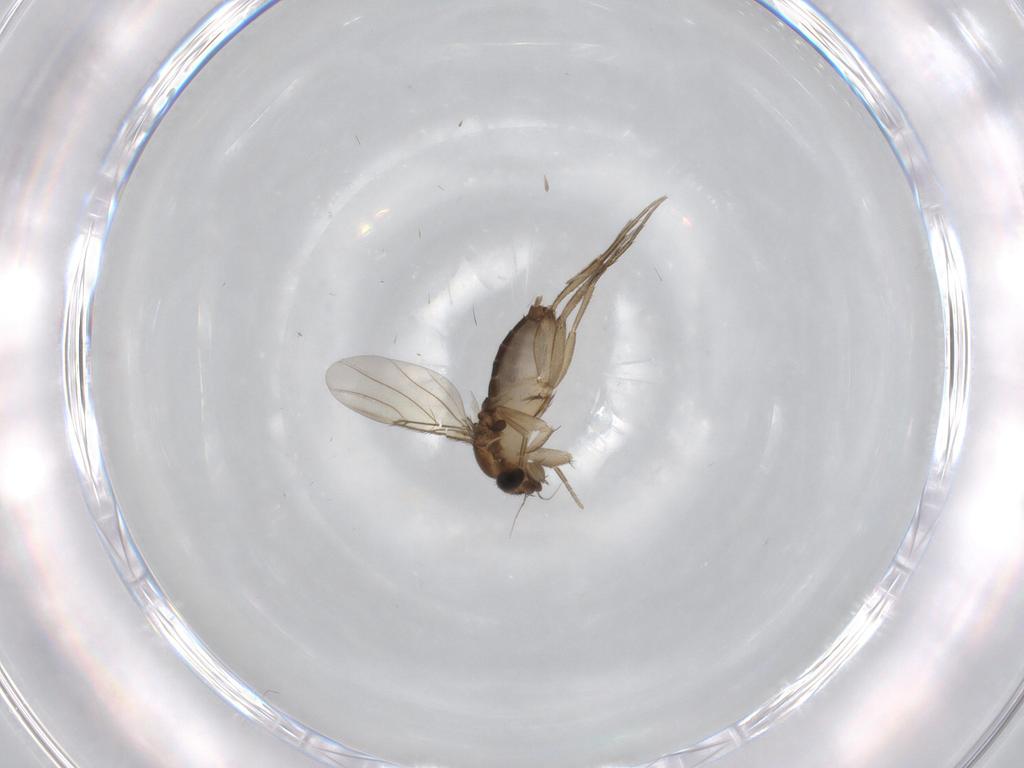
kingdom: Animalia
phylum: Arthropoda
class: Insecta
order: Diptera
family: Phoridae
